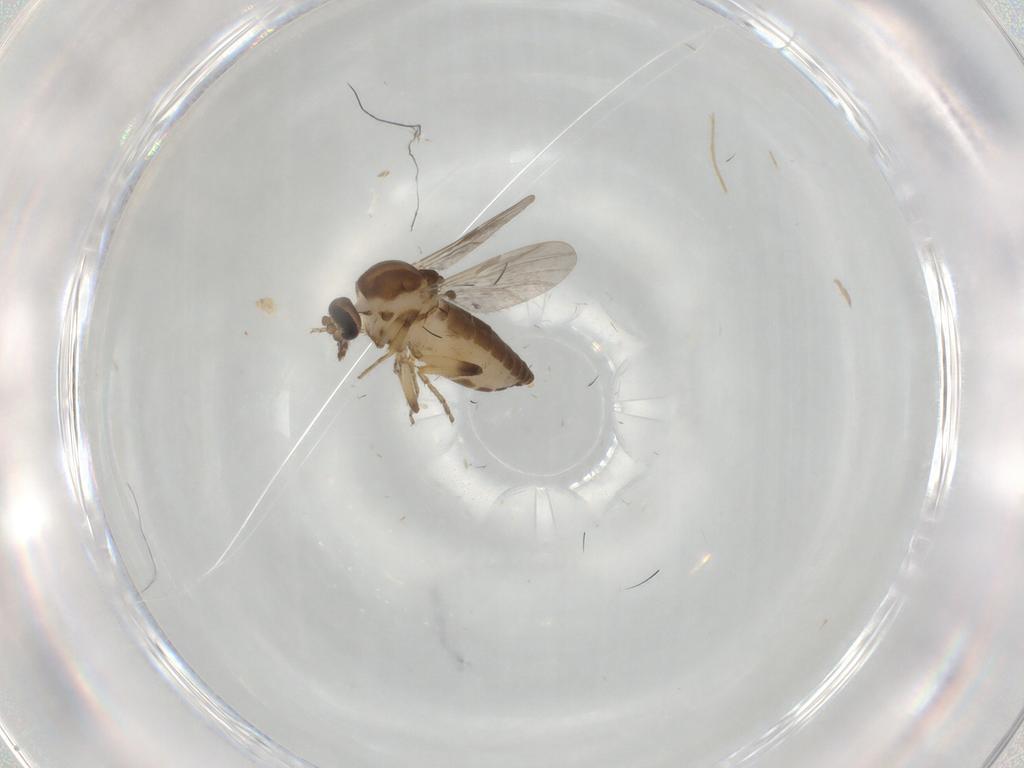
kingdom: Animalia
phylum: Arthropoda
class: Insecta
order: Diptera
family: Ceratopogonidae
